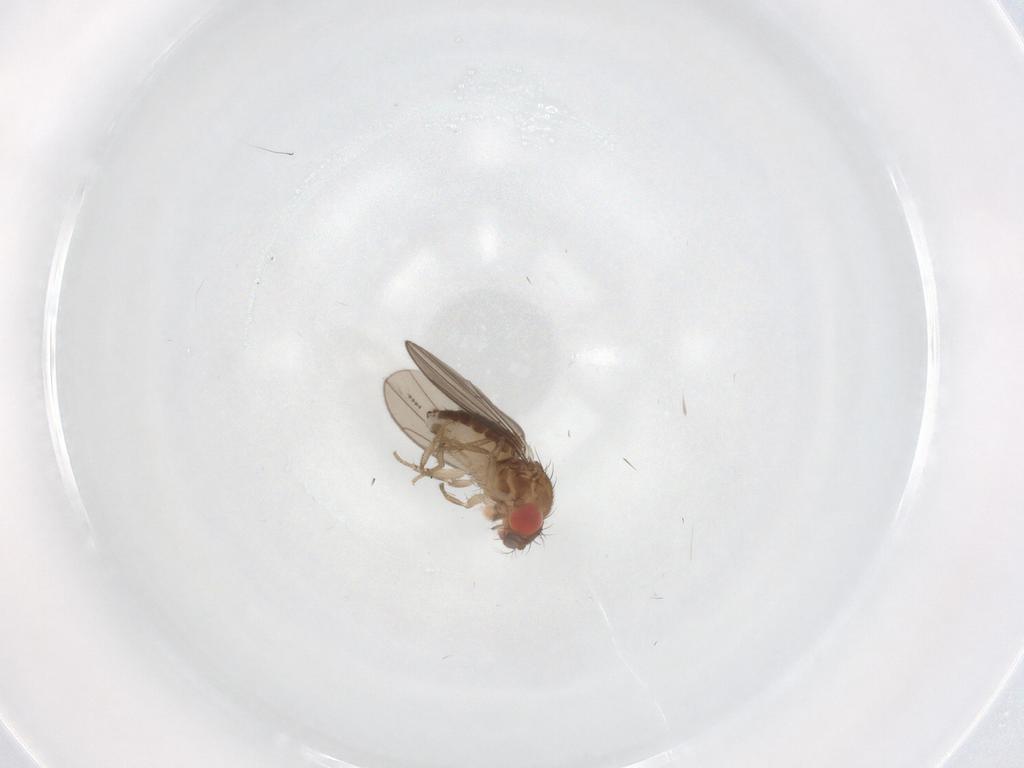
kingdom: Animalia
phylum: Arthropoda
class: Insecta
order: Diptera
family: Drosophilidae
